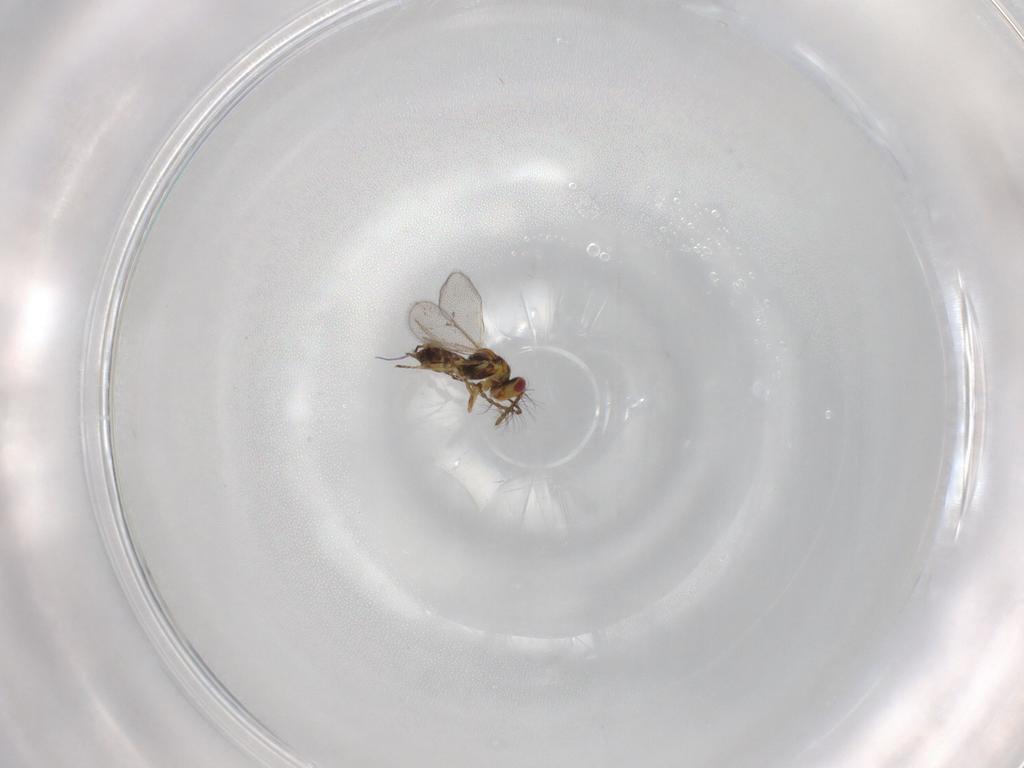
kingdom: Animalia
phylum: Arthropoda
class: Insecta
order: Hymenoptera
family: Eulophidae
